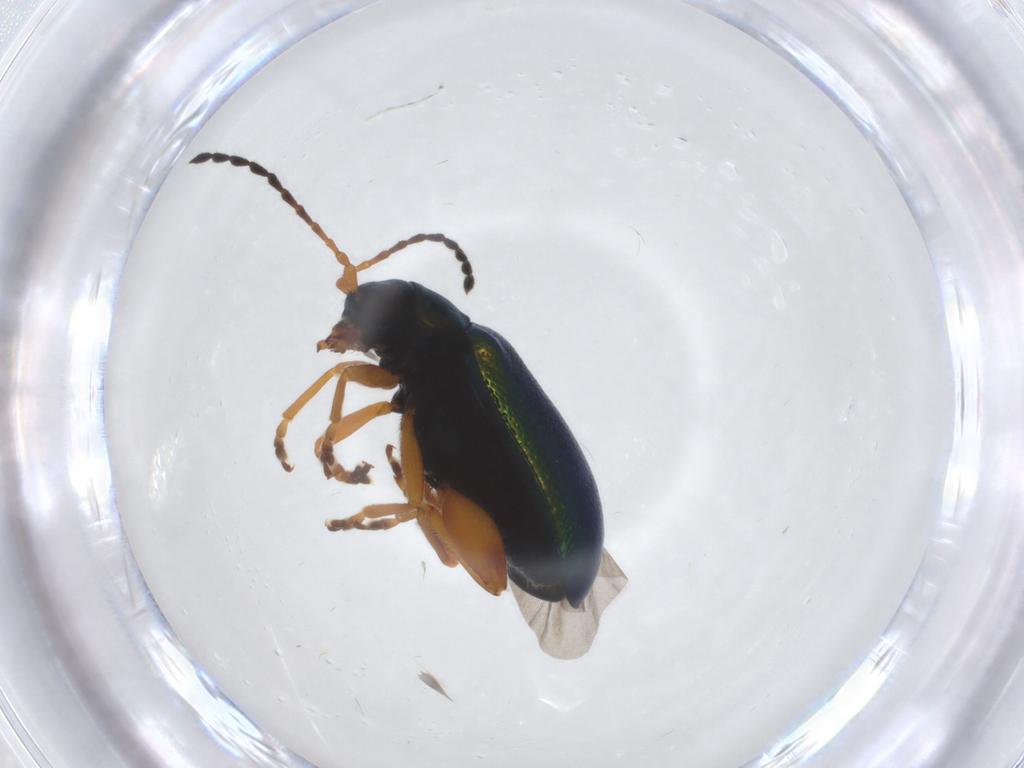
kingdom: Animalia
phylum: Arthropoda
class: Insecta
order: Coleoptera
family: Chrysomelidae
